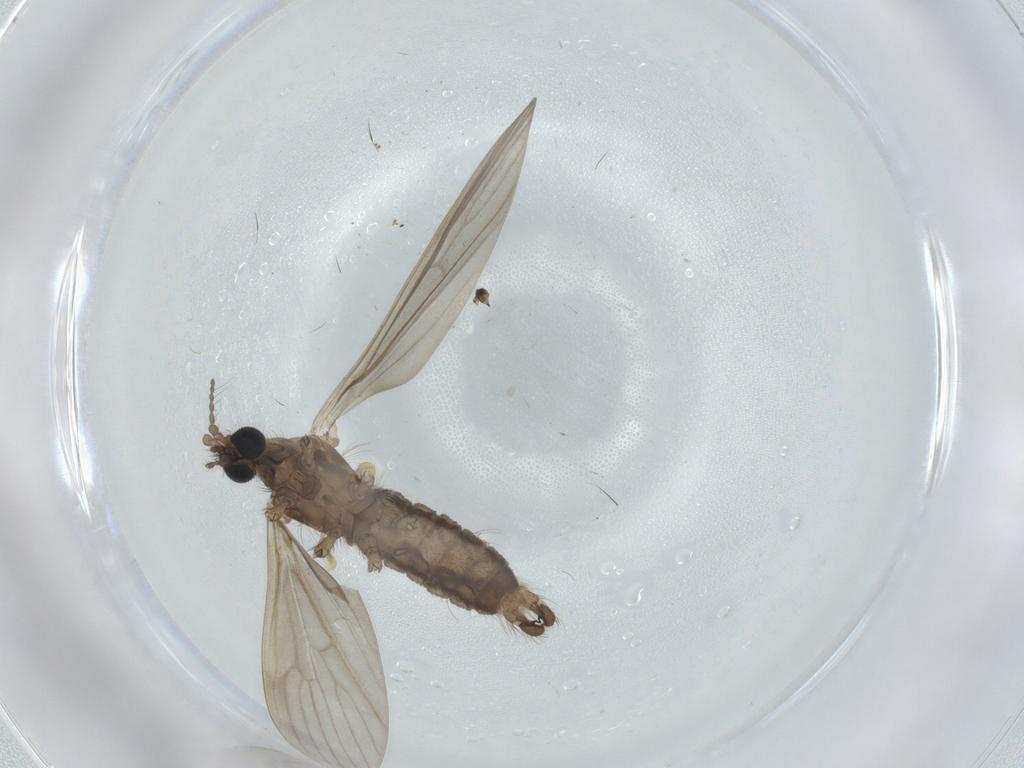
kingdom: Animalia
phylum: Arthropoda
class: Insecta
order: Diptera
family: Limoniidae
